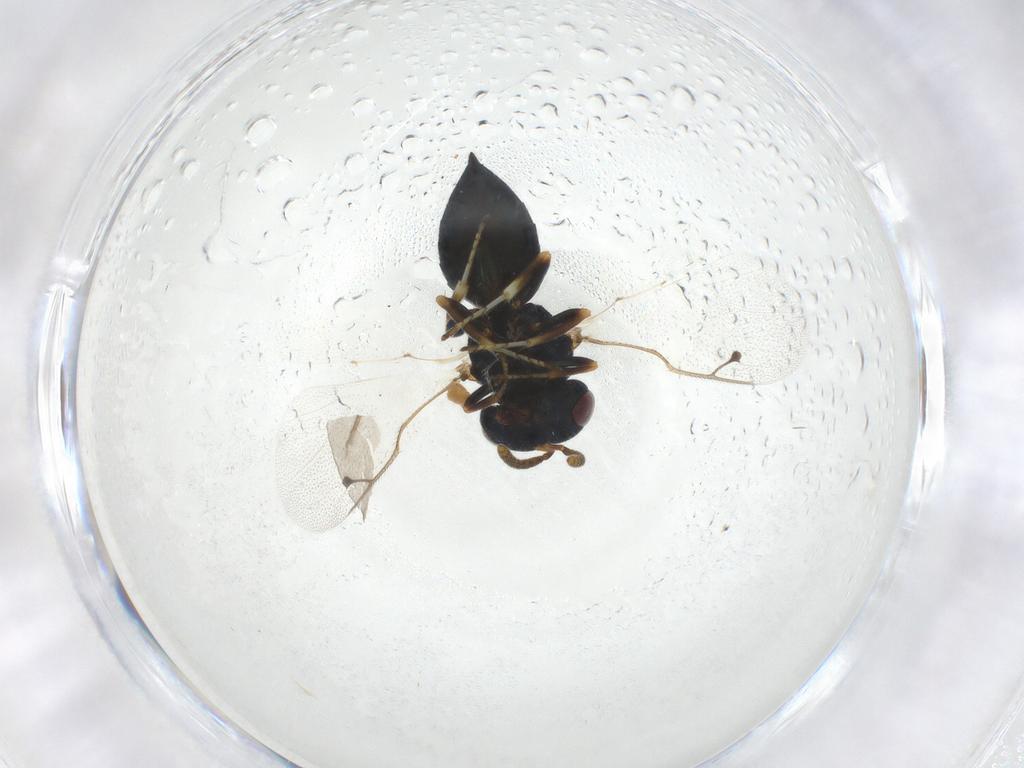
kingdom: Animalia
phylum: Arthropoda
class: Insecta
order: Hymenoptera
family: Pteromalidae
